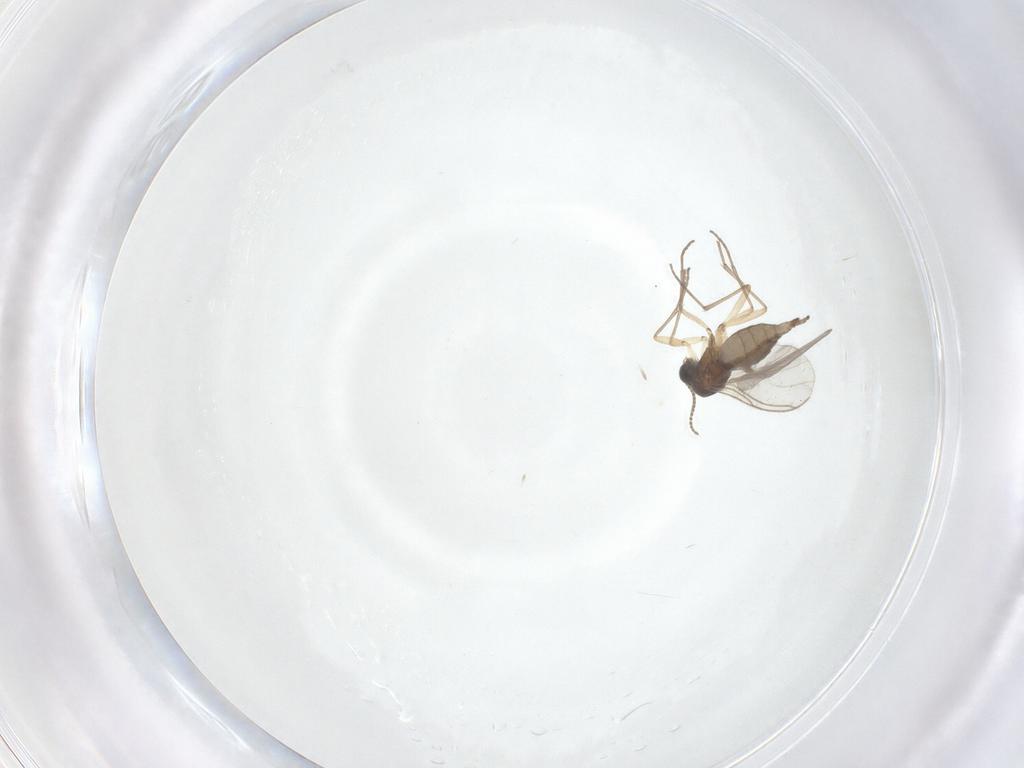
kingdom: Animalia
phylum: Arthropoda
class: Insecta
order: Diptera
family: Sciaridae
